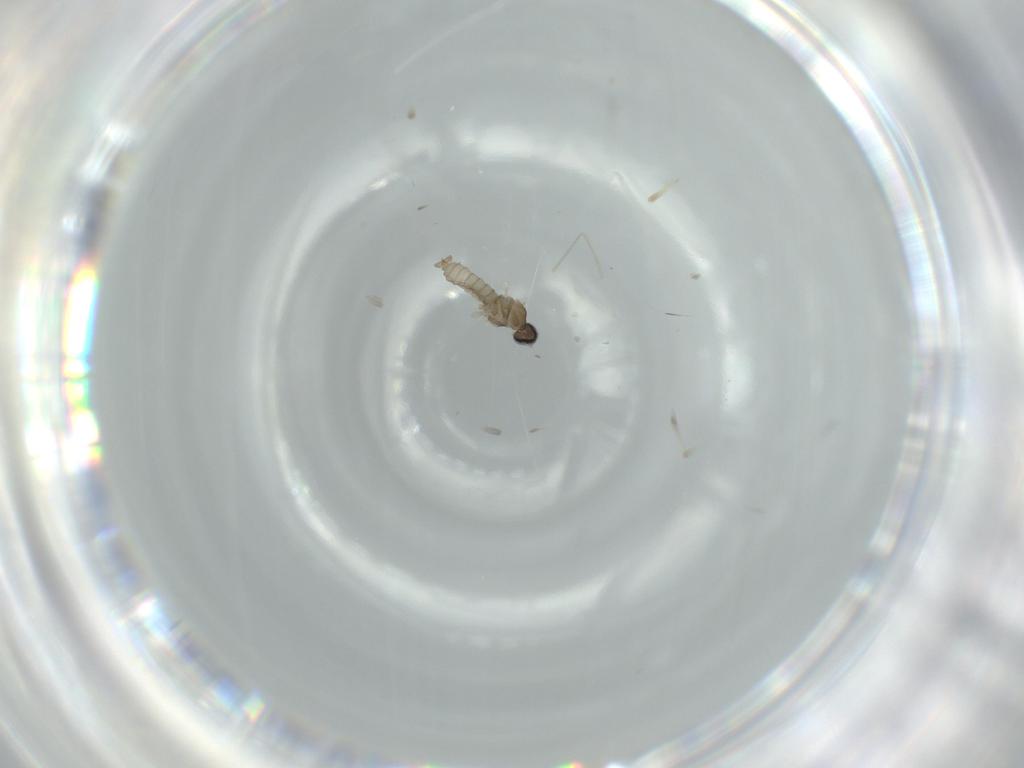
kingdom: Animalia
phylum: Arthropoda
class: Insecta
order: Diptera
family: Cecidomyiidae
